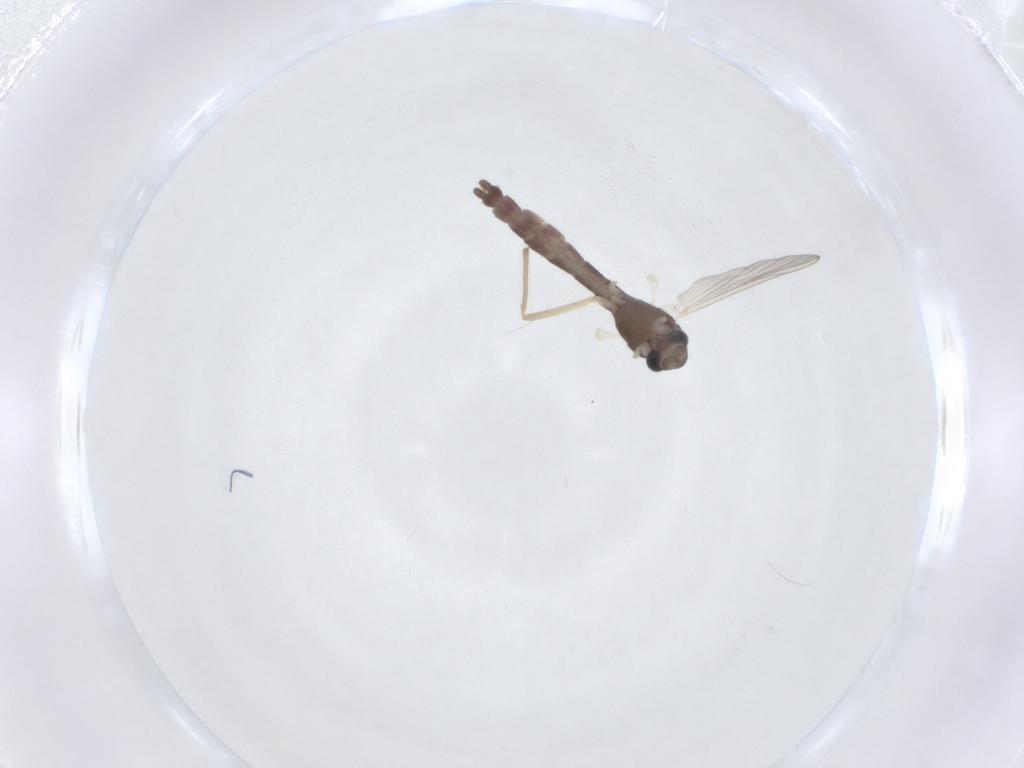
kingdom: Animalia
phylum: Arthropoda
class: Insecta
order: Diptera
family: Chironomidae
